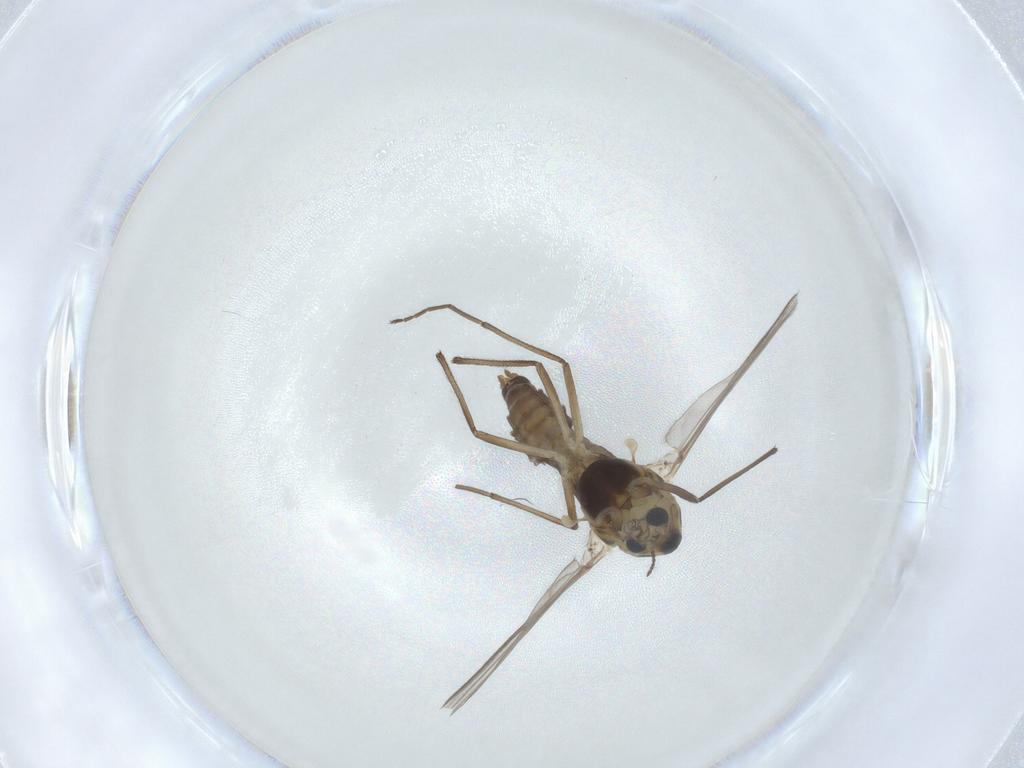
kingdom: Animalia
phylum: Arthropoda
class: Insecta
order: Diptera
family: Chironomidae
